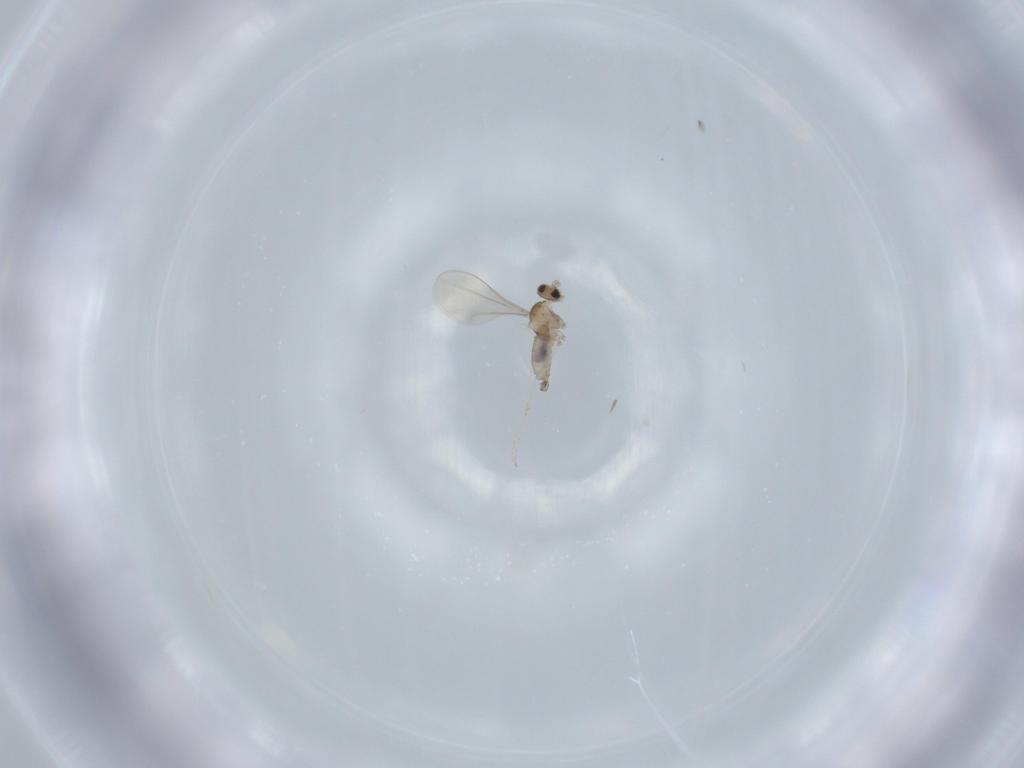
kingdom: Animalia
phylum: Arthropoda
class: Insecta
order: Diptera
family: Cecidomyiidae
